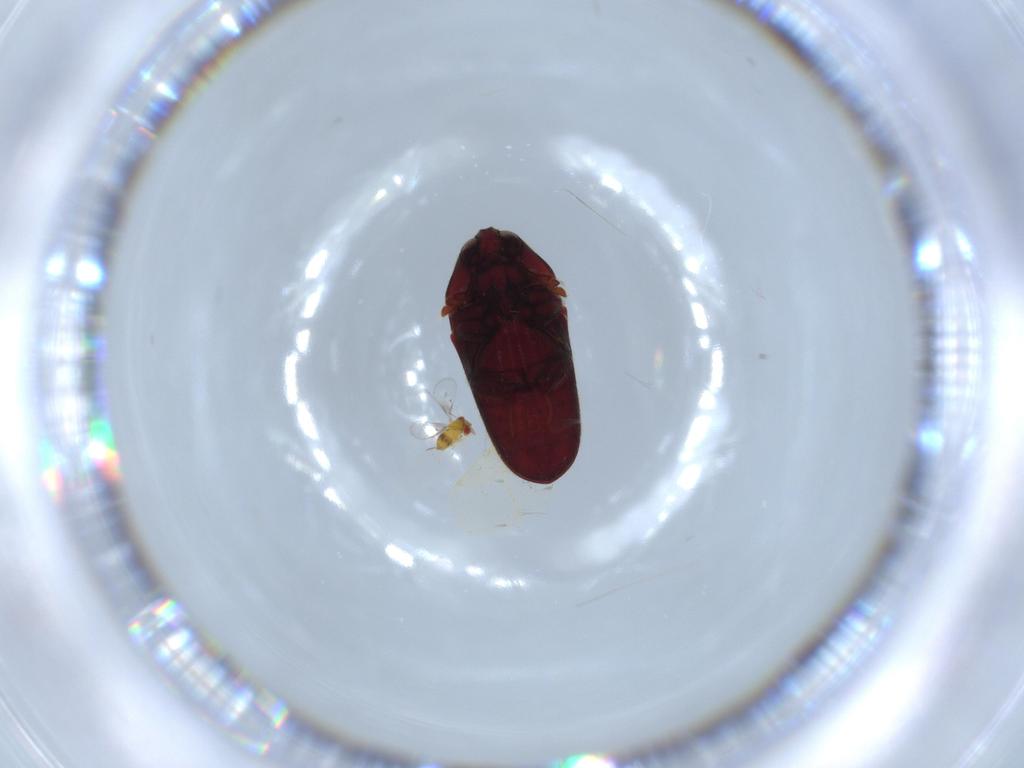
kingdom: Animalia
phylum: Arthropoda
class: Insecta
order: Coleoptera
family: Throscidae
